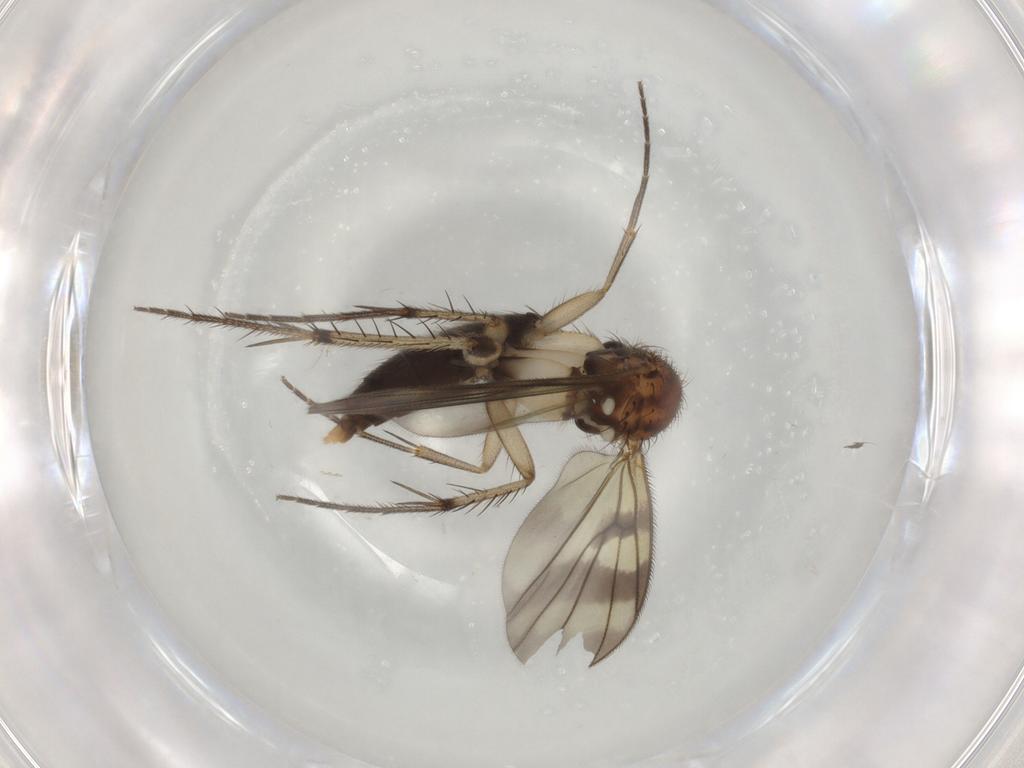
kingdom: Animalia
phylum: Arthropoda
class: Insecta
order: Diptera
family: Mycetophilidae
